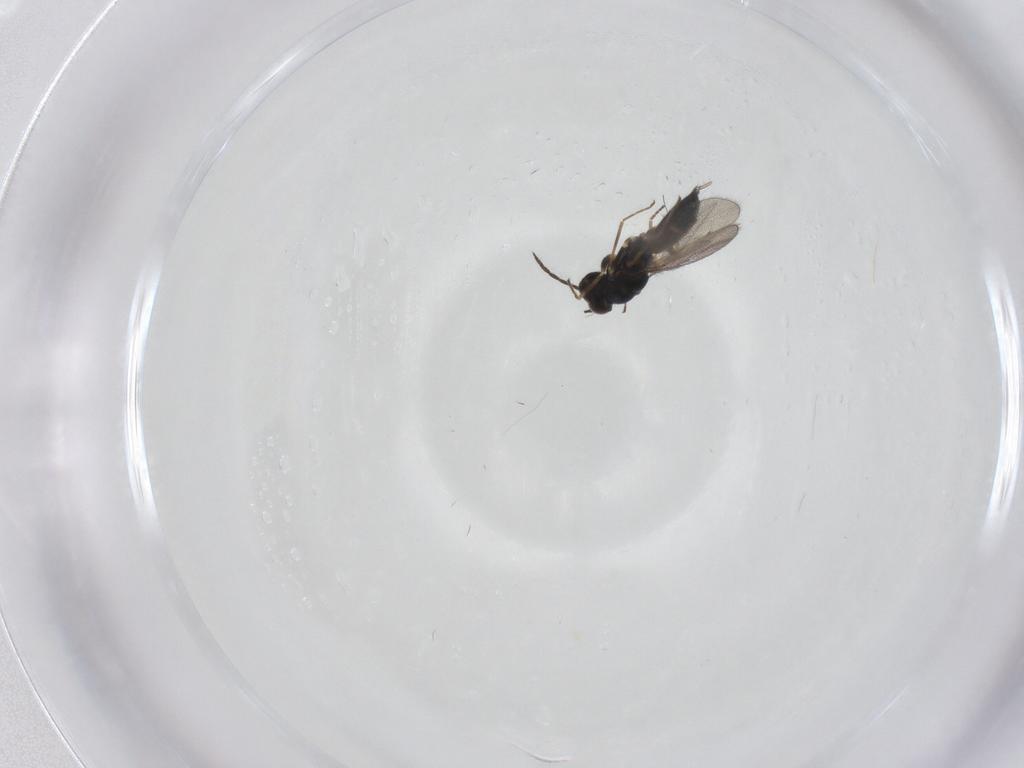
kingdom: Animalia
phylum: Arthropoda
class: Insecta
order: Hymenoptera
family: Eulophidae
